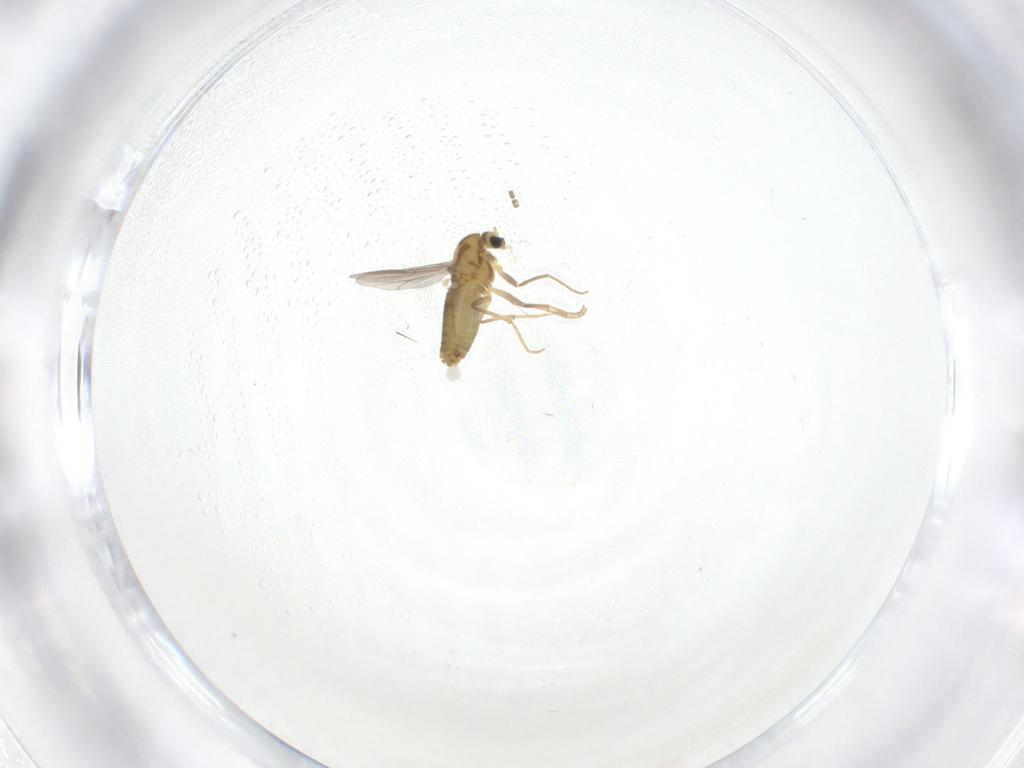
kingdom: Animalia
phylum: Arthropoda
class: Insecta
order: Diptera
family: Chironomidae
